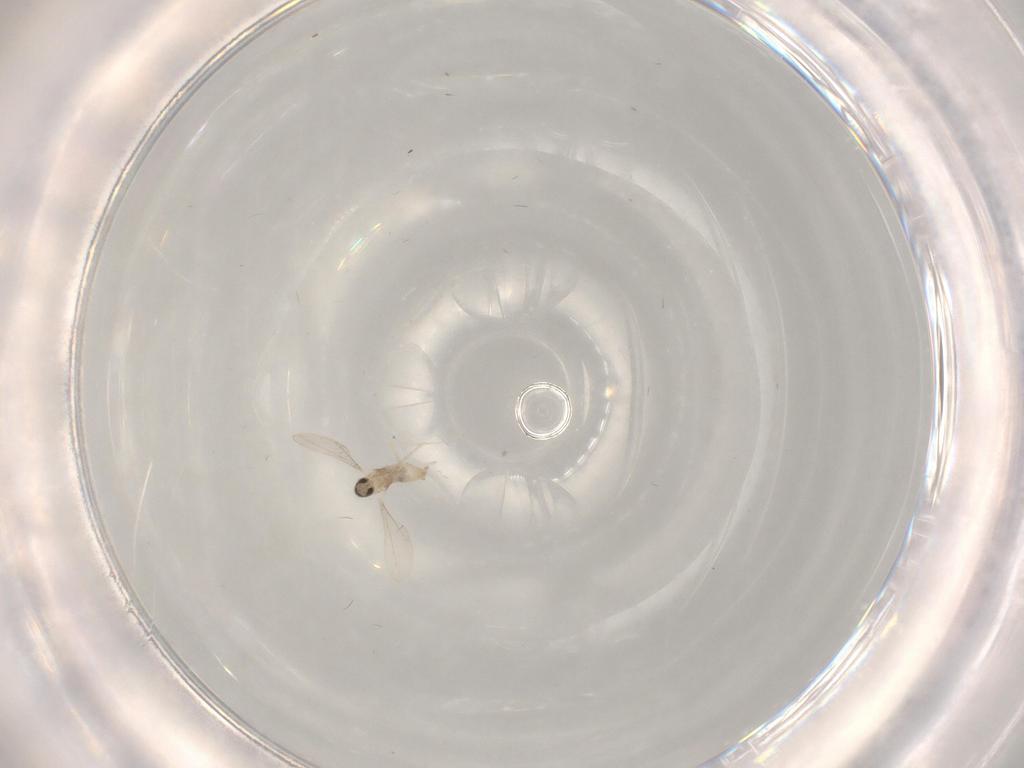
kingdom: Animalia
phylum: Arthropoda
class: Insecta
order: Diptera
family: Cecidomyiidae
